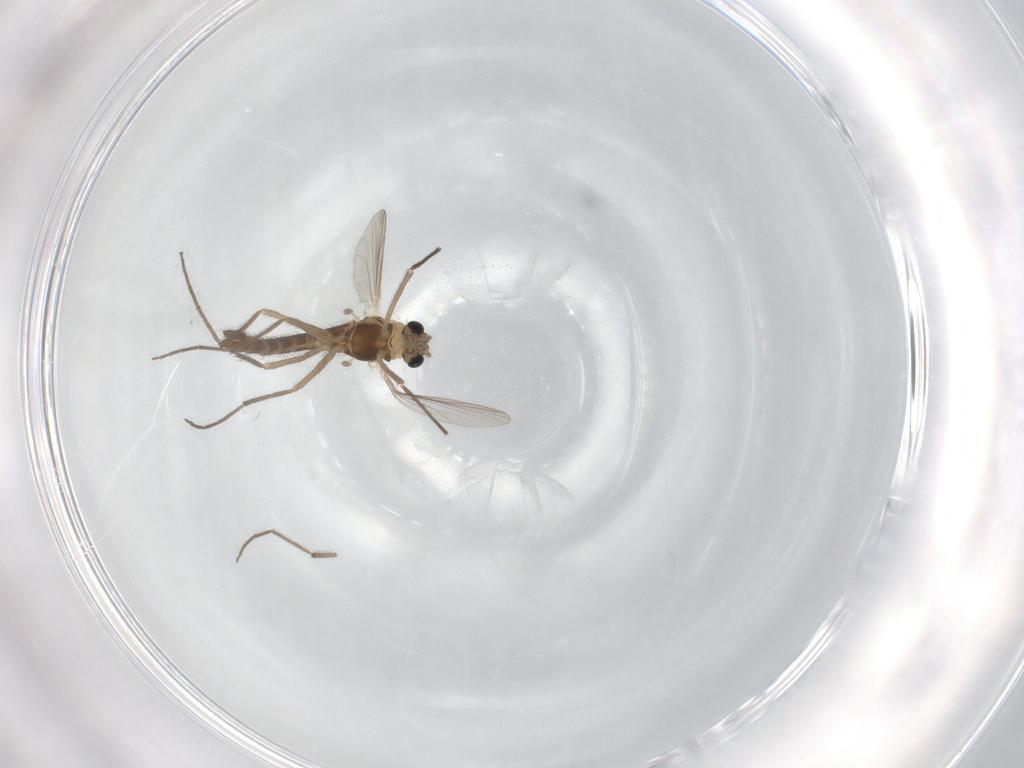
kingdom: Animalia
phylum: Arthropoda
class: Insecta
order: Diptera
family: Chironomidae
